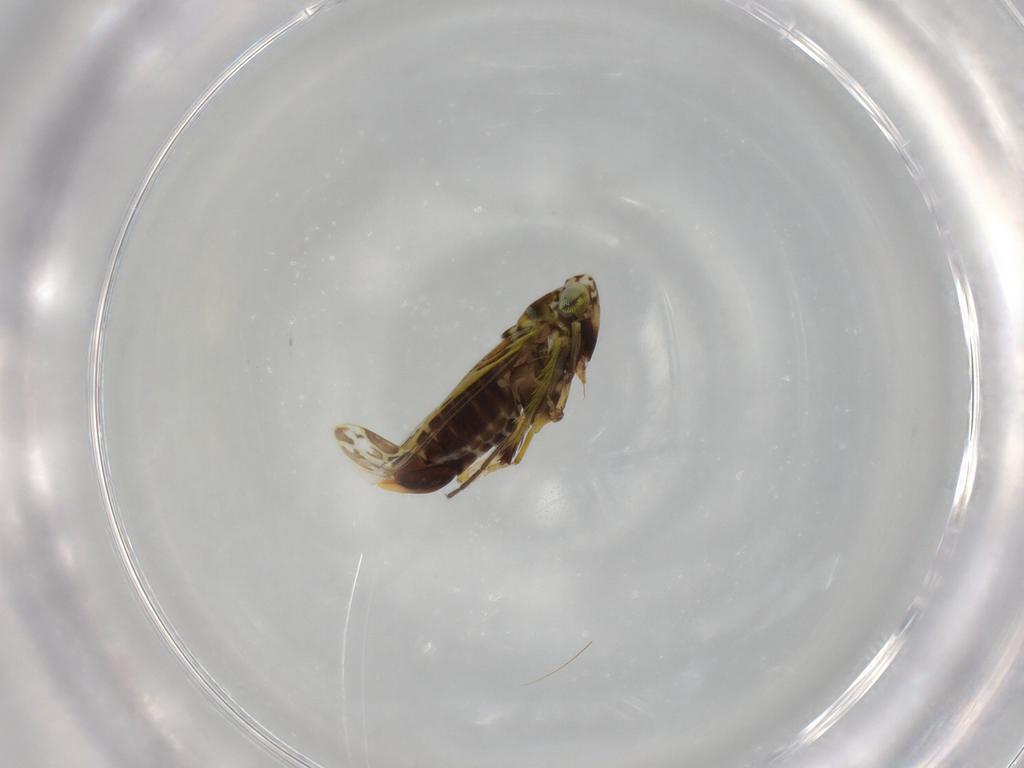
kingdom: Animalia
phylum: Arthropoda
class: Insecta
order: Hemiptera
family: Cicadellidae
